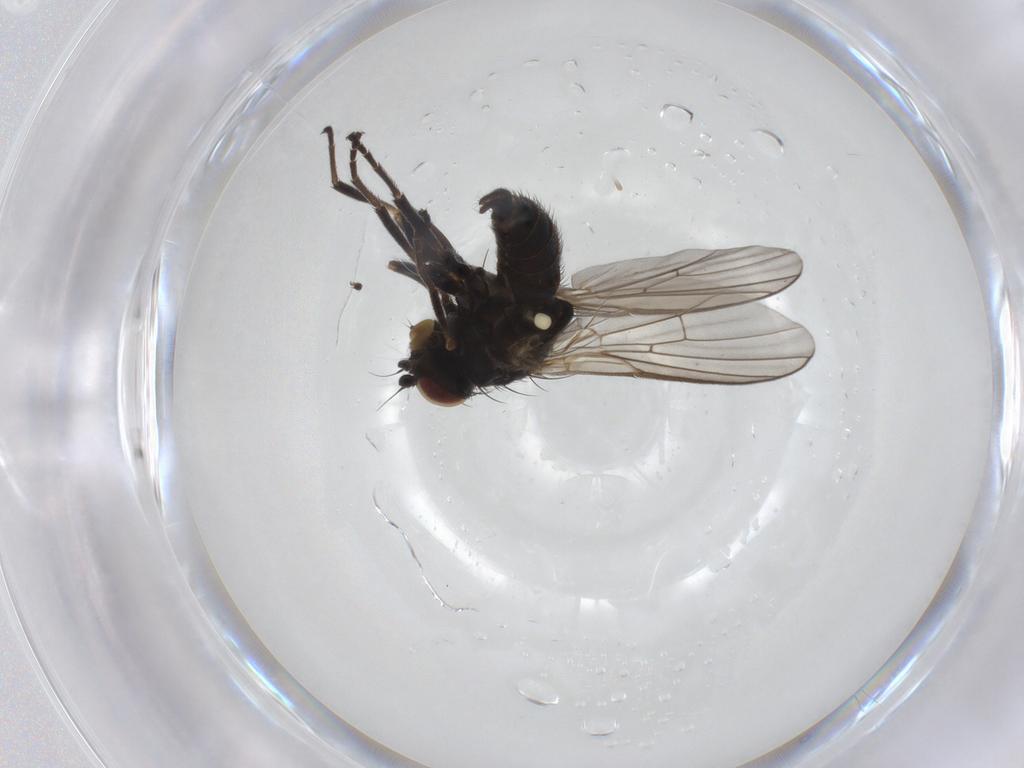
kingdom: Animalia
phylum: Arthropoda
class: Insecta
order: Diptera
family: Agromyzidae
